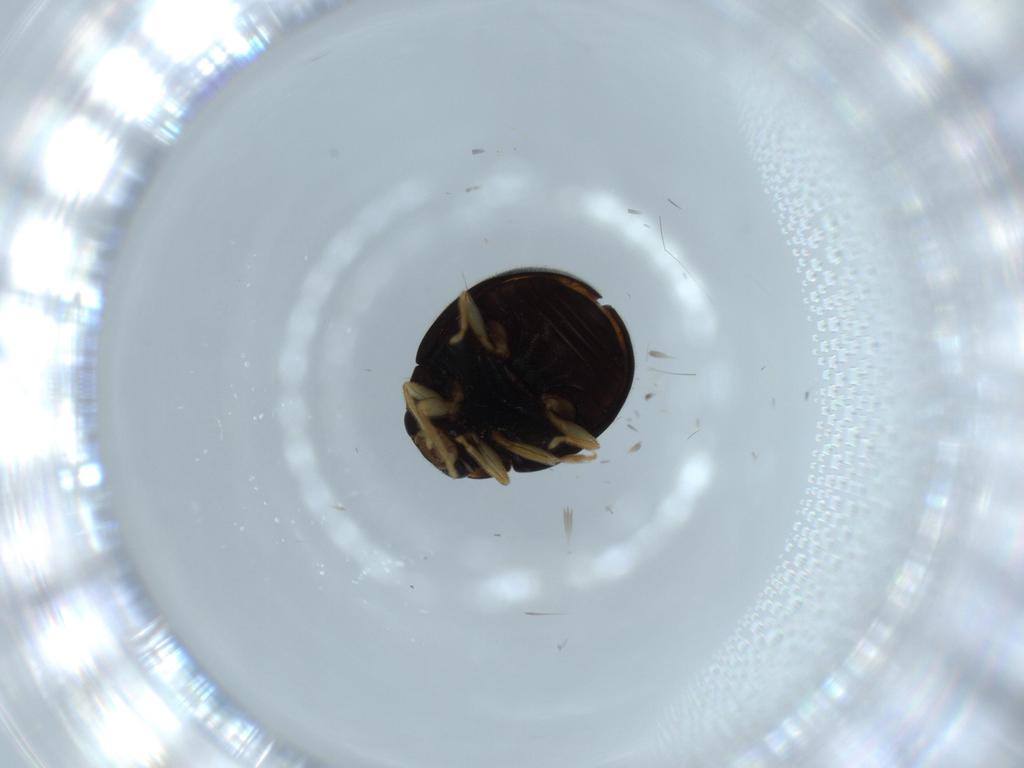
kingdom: Animalia
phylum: Arthropoda
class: Insecta
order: Coleoptera
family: Coccinellidae
